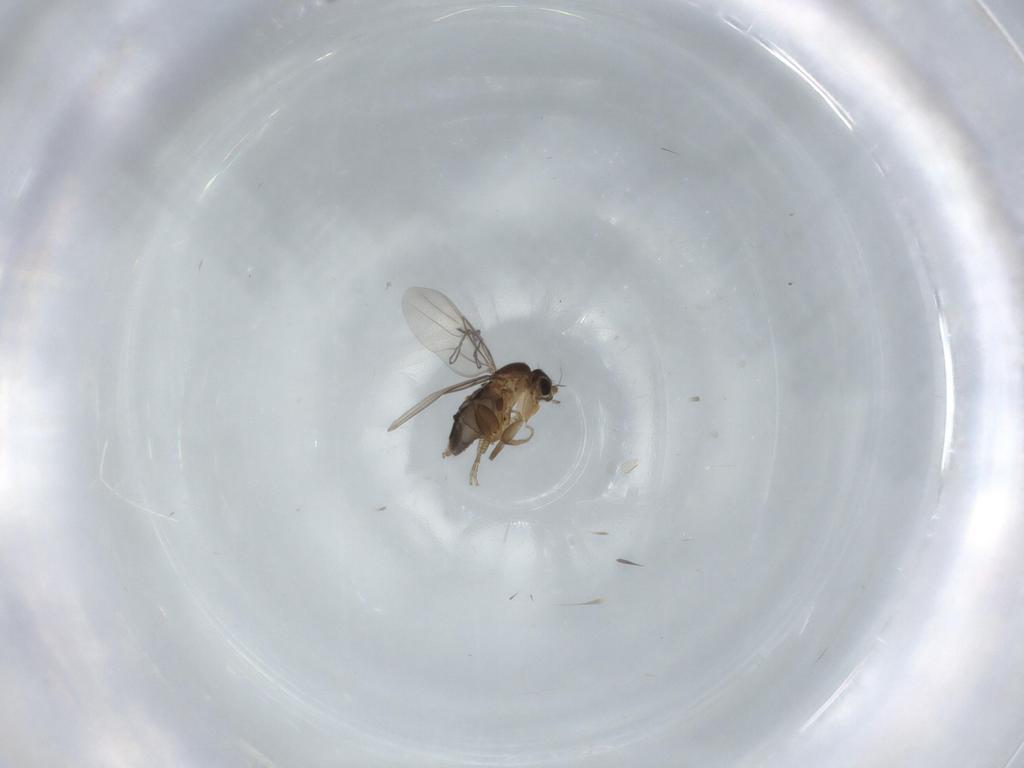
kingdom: Animalia
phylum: Arthropoda
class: Insecta
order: Diptera
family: Phoridae
